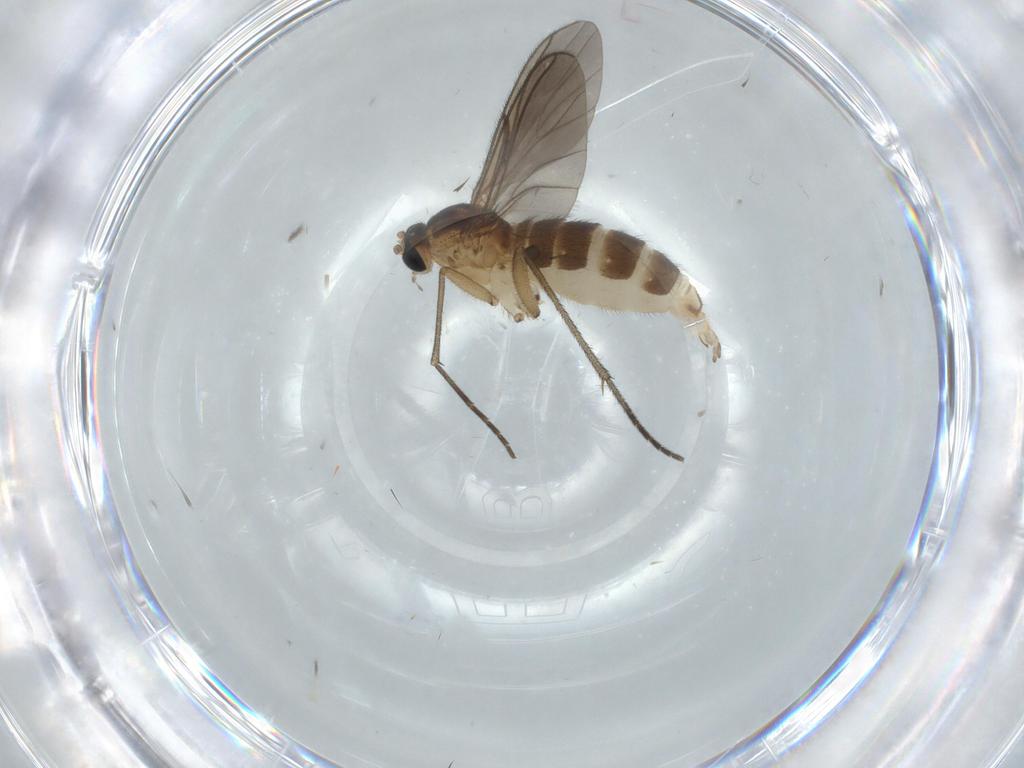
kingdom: Animalia
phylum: Arthropoda
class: Insecta
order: Diptera
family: Sciaridae
